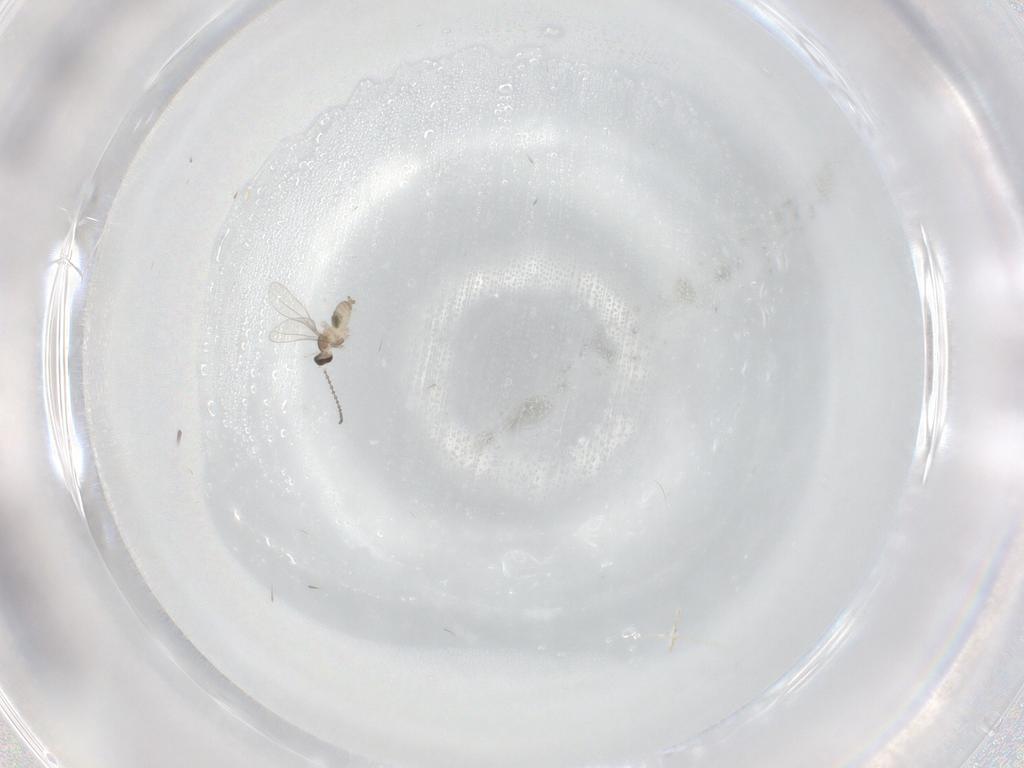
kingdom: Animalia
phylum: Arthropoda
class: Insecta
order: Diptera
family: Cecidomyiidae
